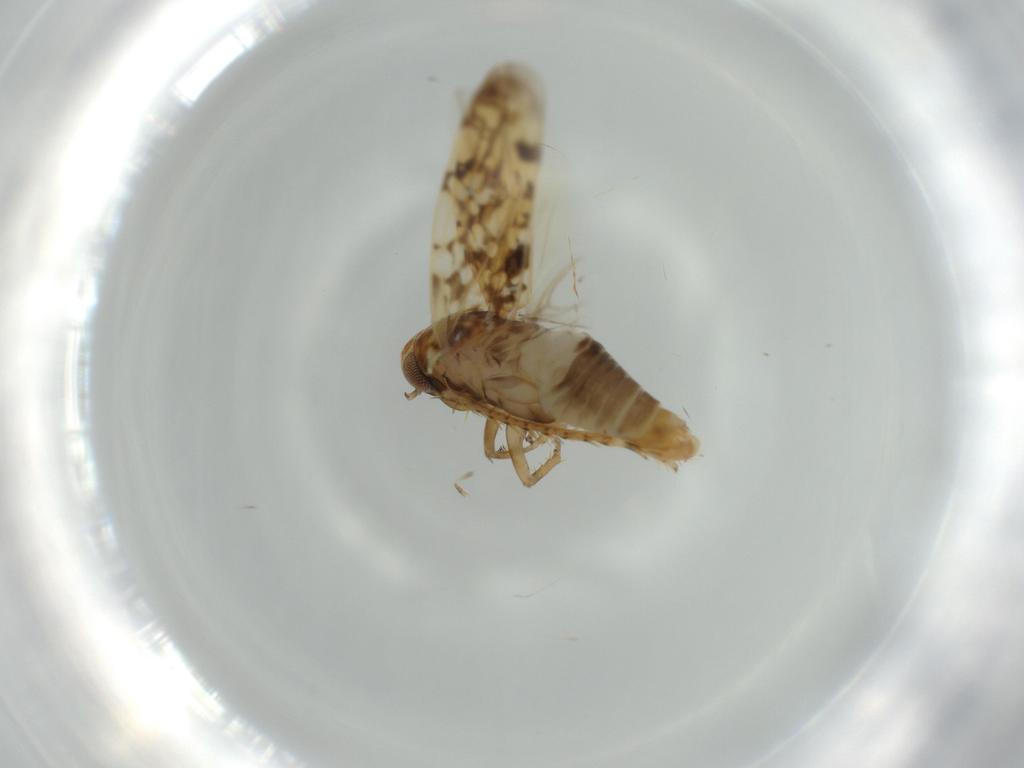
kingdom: Animalia
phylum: Arthropoda
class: Insecta
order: Hemiptera
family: Cicadellidae
